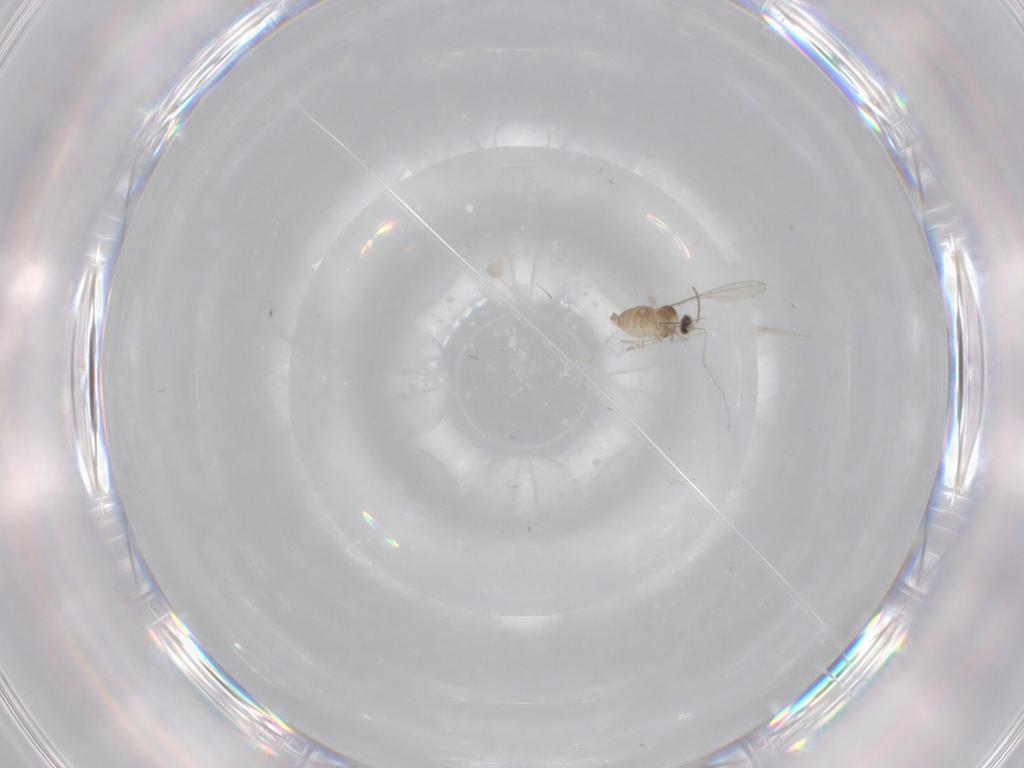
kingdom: Animalia
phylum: Arthropoda
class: Insecta
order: Diptera
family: Cecidomyiidae
